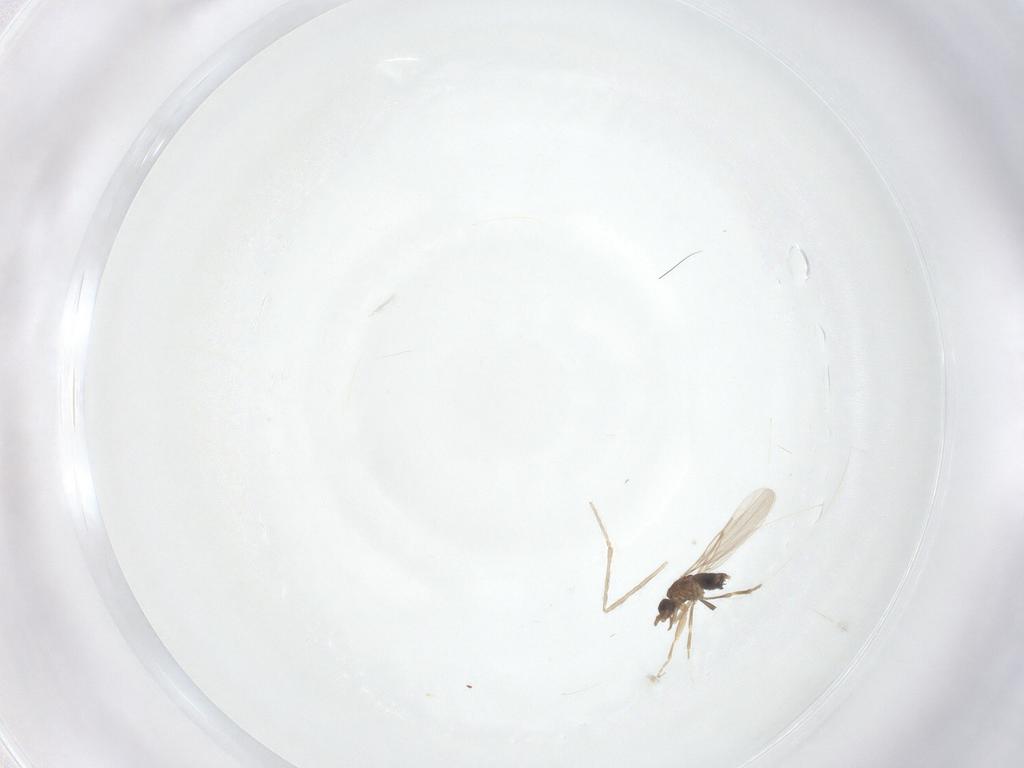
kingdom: Animalia
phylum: Arthropoda
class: Insecta
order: Diptera
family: Phoridae
